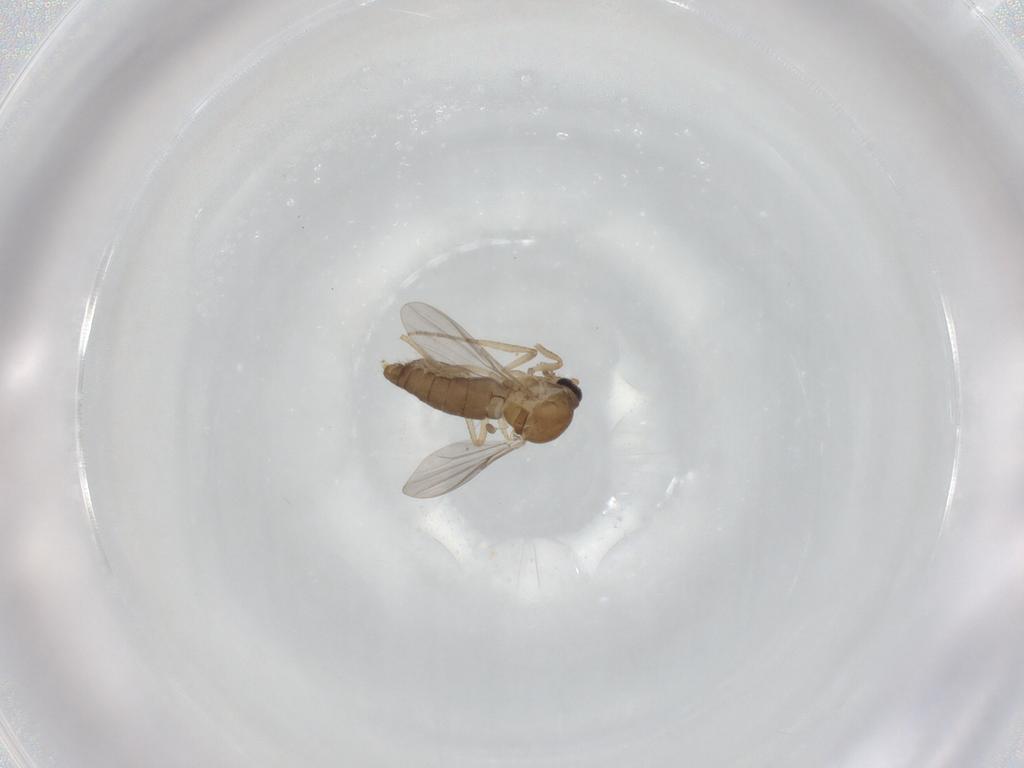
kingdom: Animalia
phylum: Arthropoda
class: Insecta
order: Diptera
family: Ceratopogonidae
